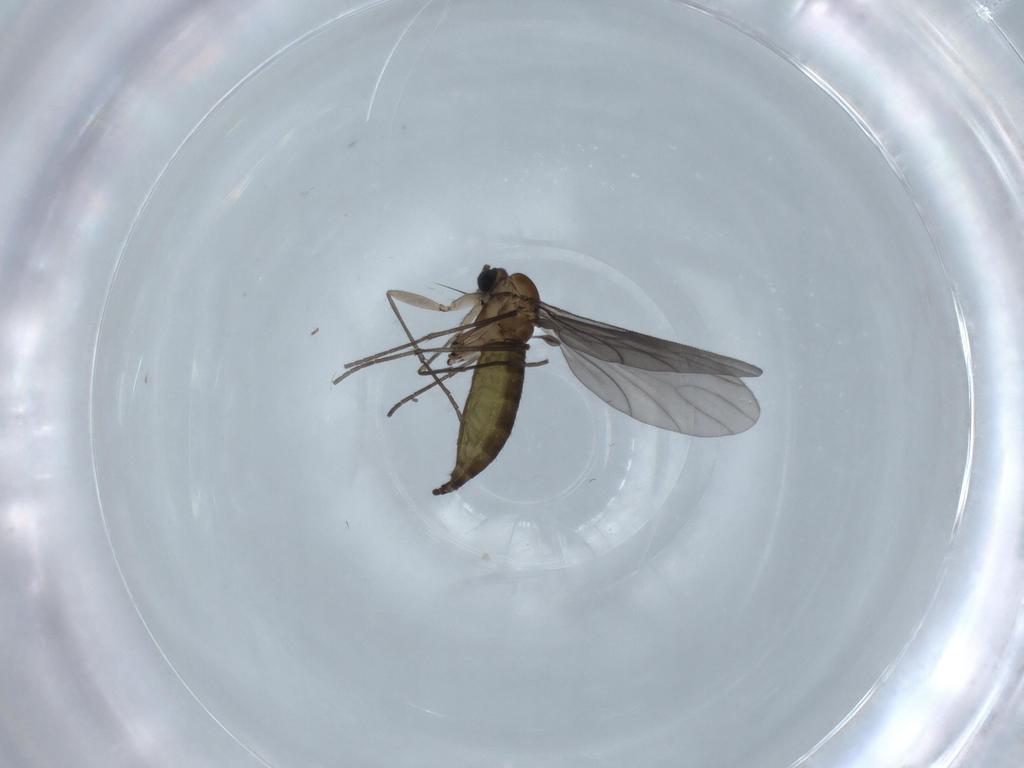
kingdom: Animalia
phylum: Arthropoda
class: Insecta
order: Diptera
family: Sciaridae
